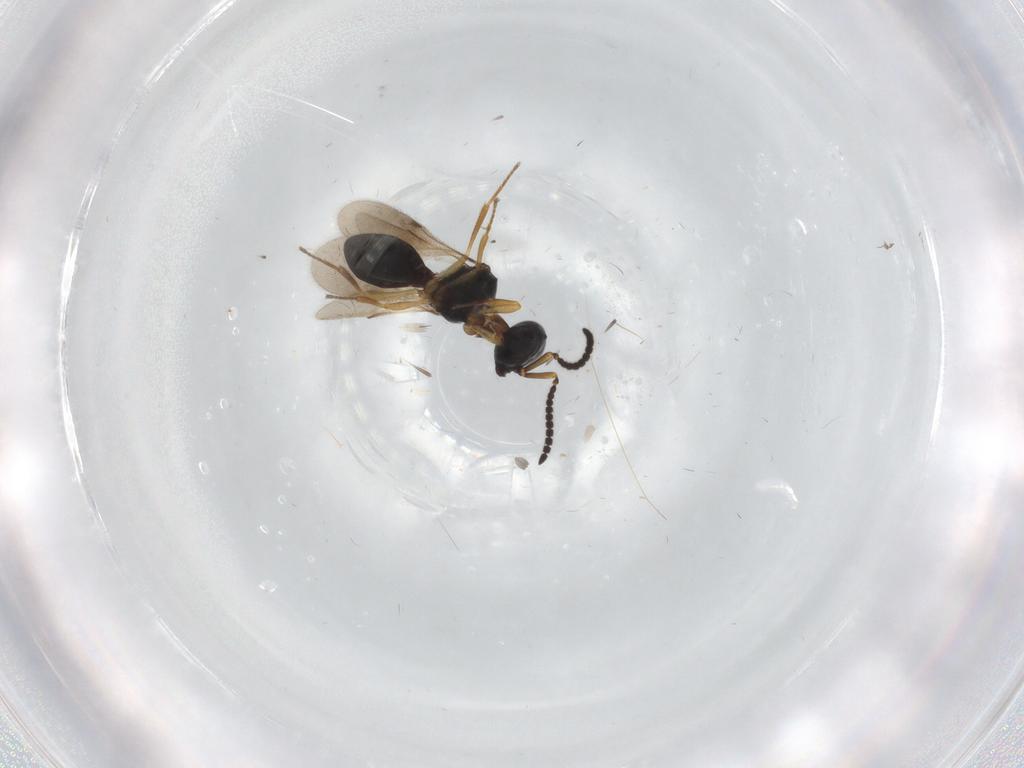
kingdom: Animalia
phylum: Arthropoda
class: Insecta
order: Hymenoptera
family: Scelionidae
